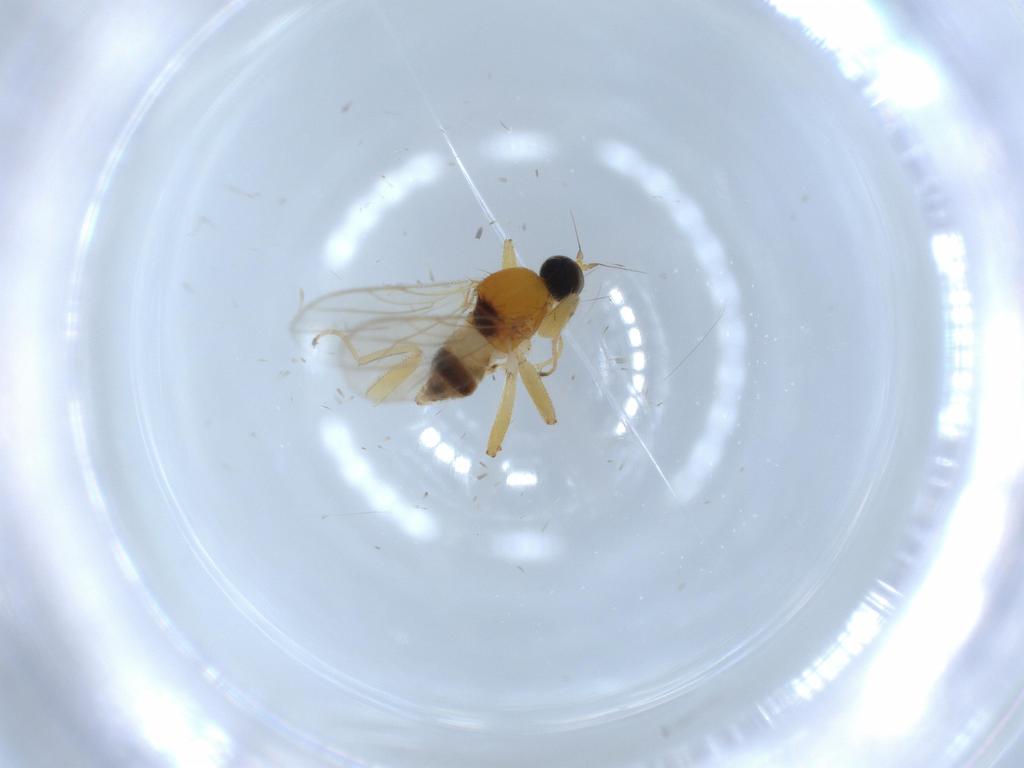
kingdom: Animalia
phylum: Arthropoda
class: Insecta
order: Diptera
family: Hybotidae
